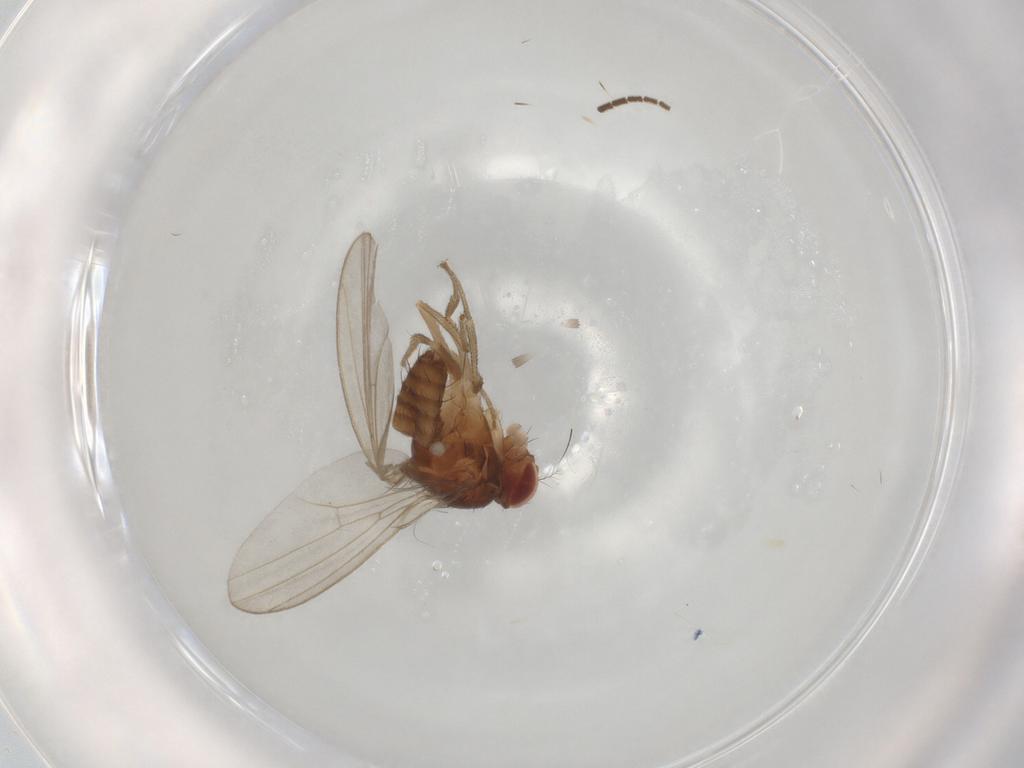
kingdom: Animalia
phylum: Arthropoda
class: Insecta
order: Diptera
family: Drosophilidae
